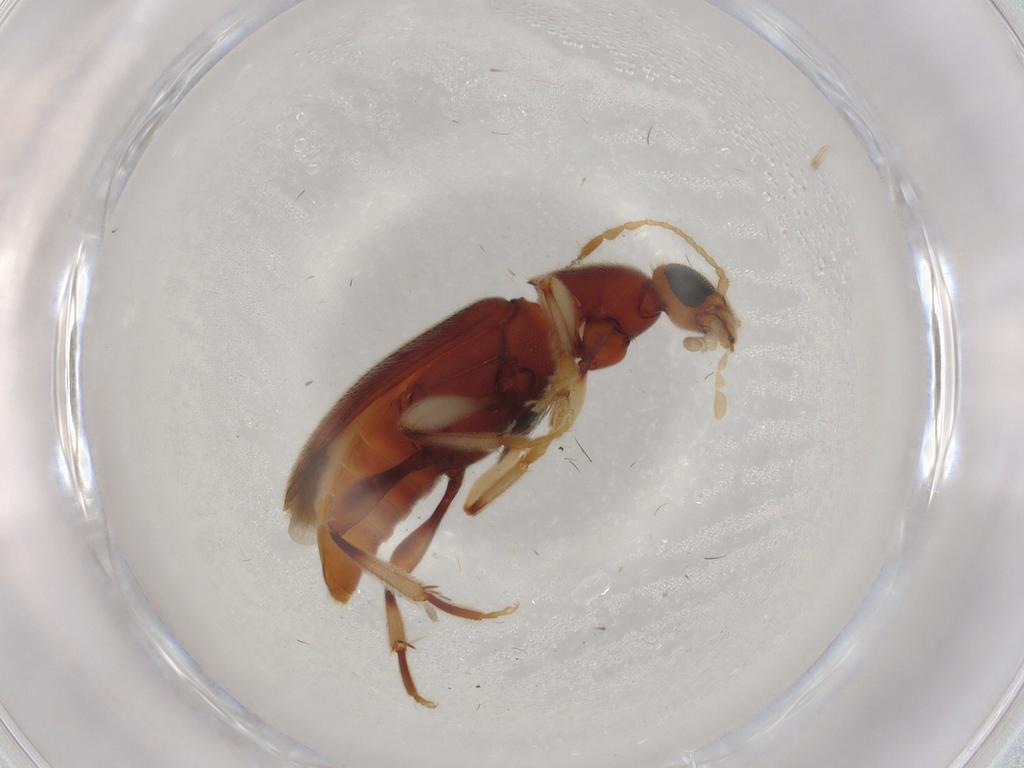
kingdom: Animalia
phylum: Arthropoda
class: Insecta
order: Coleoptera
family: Anthicidae
